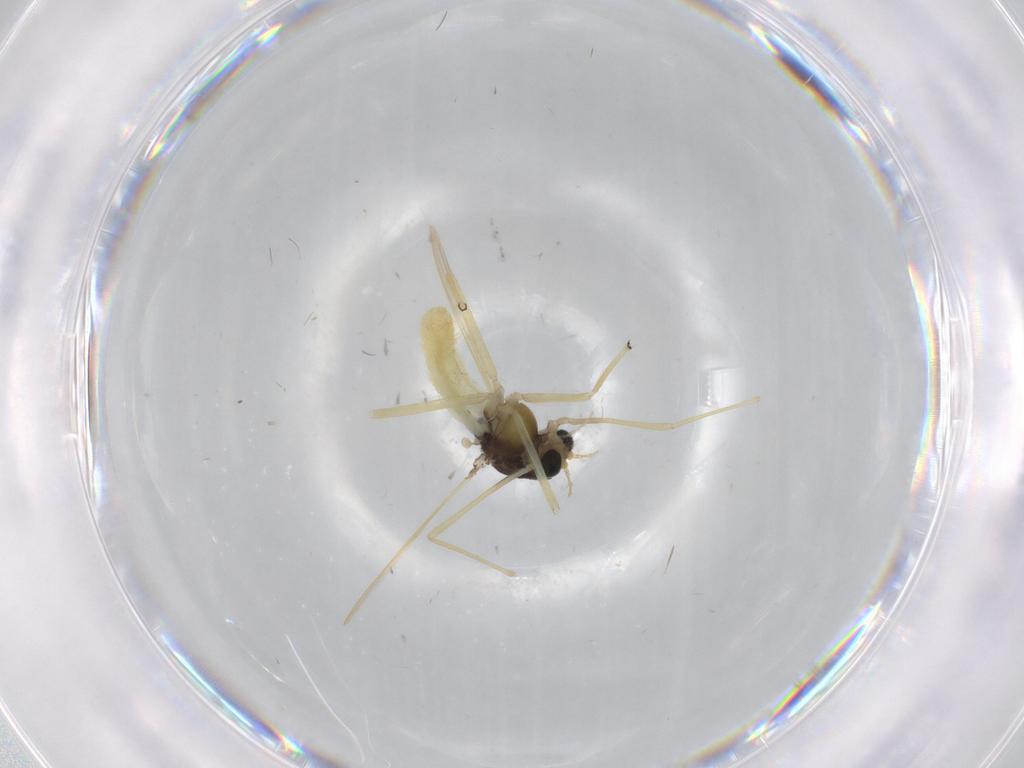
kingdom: Animalia
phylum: Arthropoda
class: Insecta
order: Diptera
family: Chironomidae
